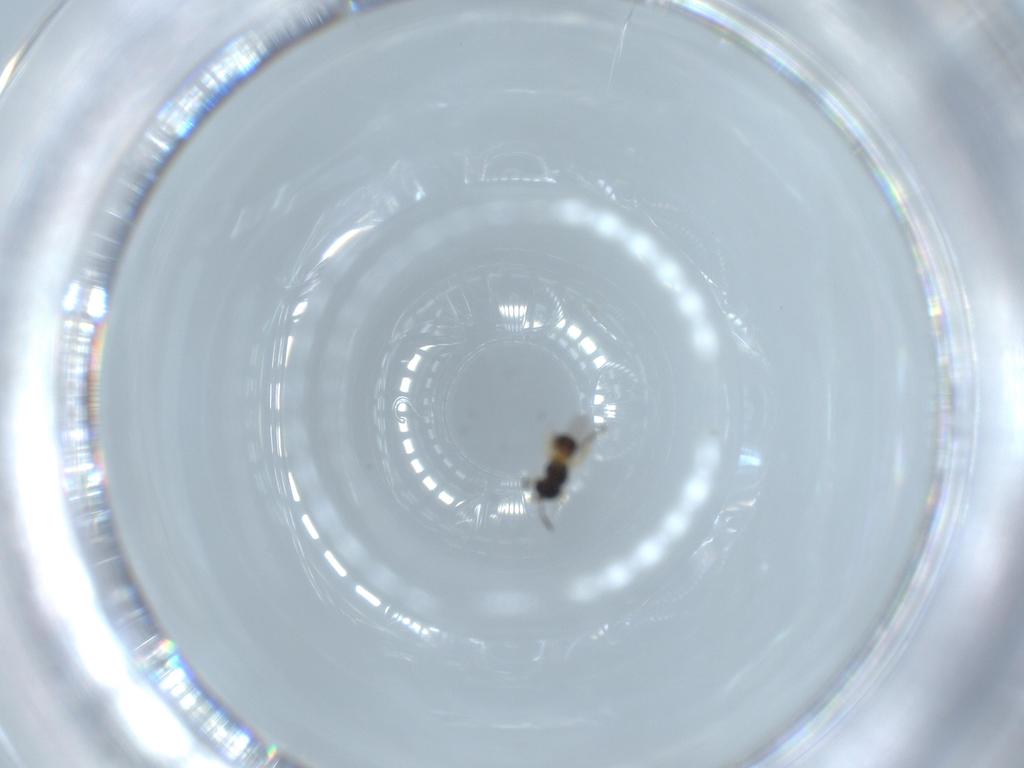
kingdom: Animalia
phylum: Arthropoda
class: Insecta
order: Hymenoptera
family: Scelionidae
